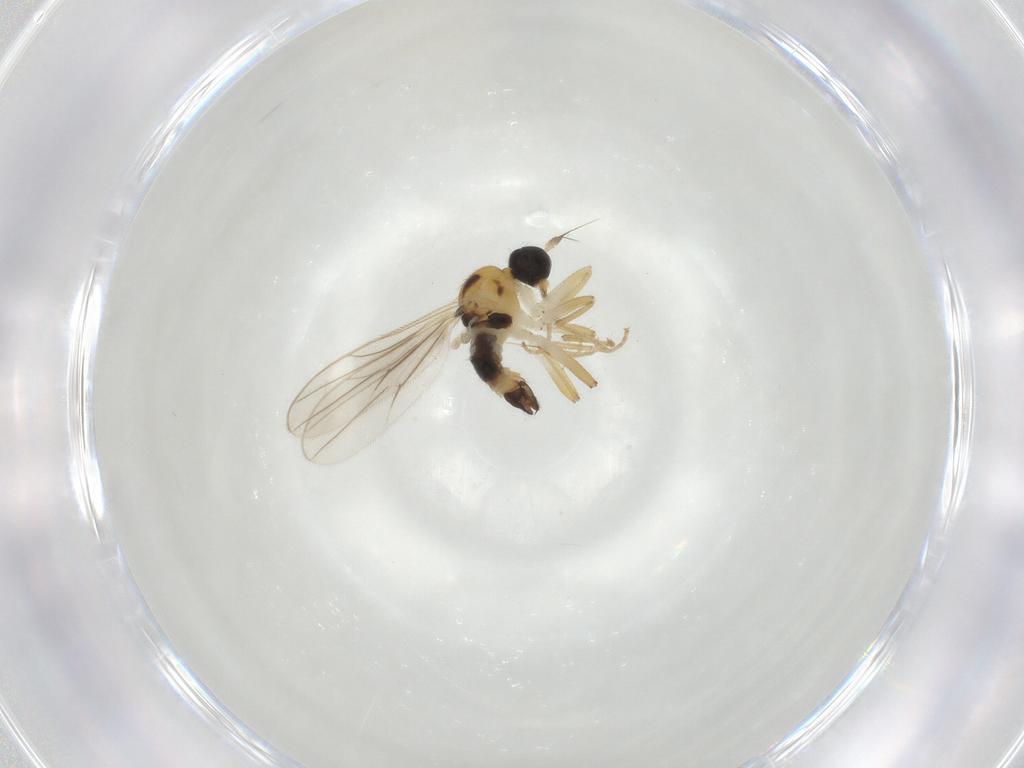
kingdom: Animalia
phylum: Arthropoda
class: Insecta
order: Diptera
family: Hybotidae
